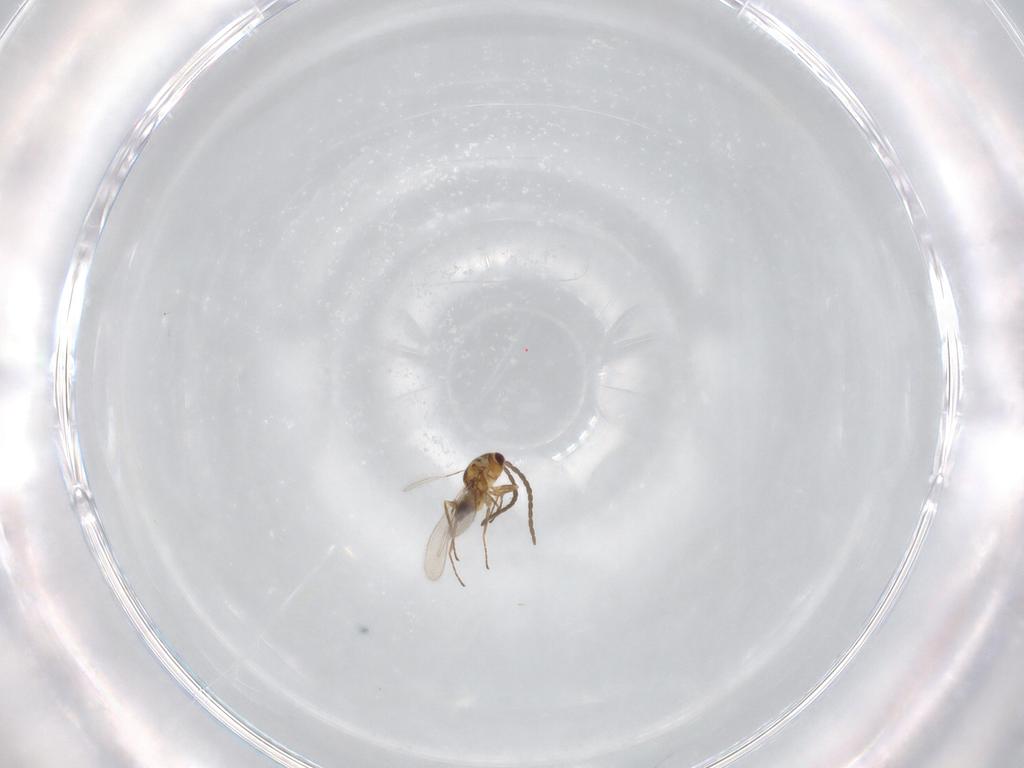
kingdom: Animalia
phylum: Arthropoda
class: Insecta
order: Hymenoptera
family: Mymaridae
